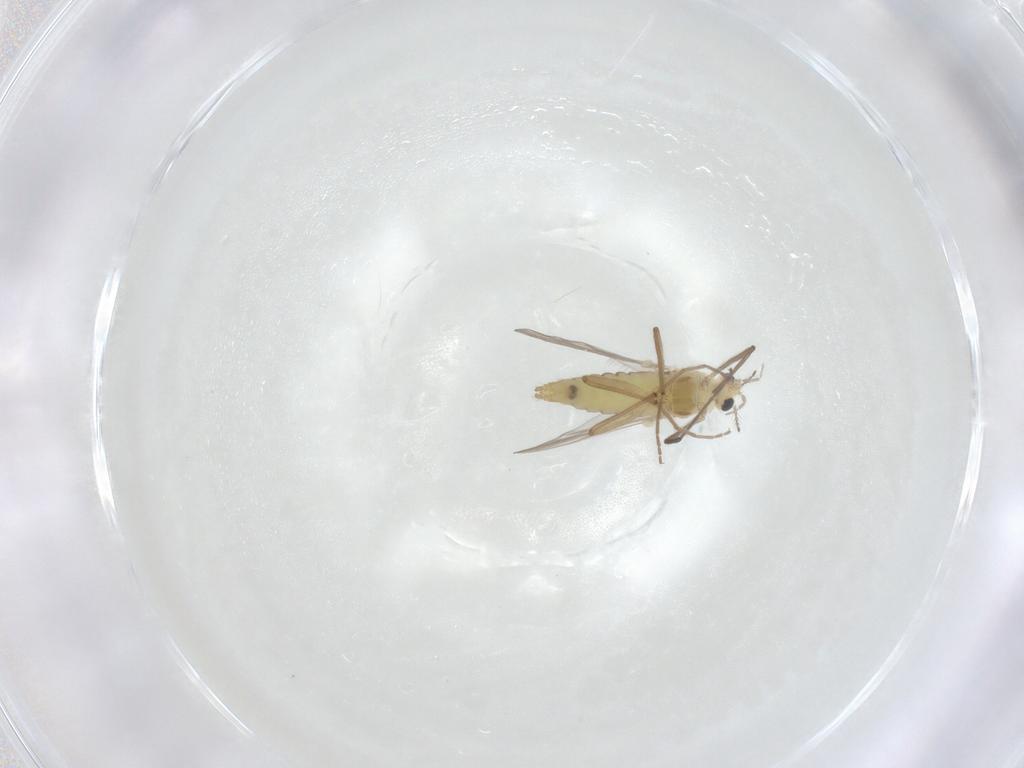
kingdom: Animalia
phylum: Arthropoda
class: Insecta
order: Diptera
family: Chironomidae
